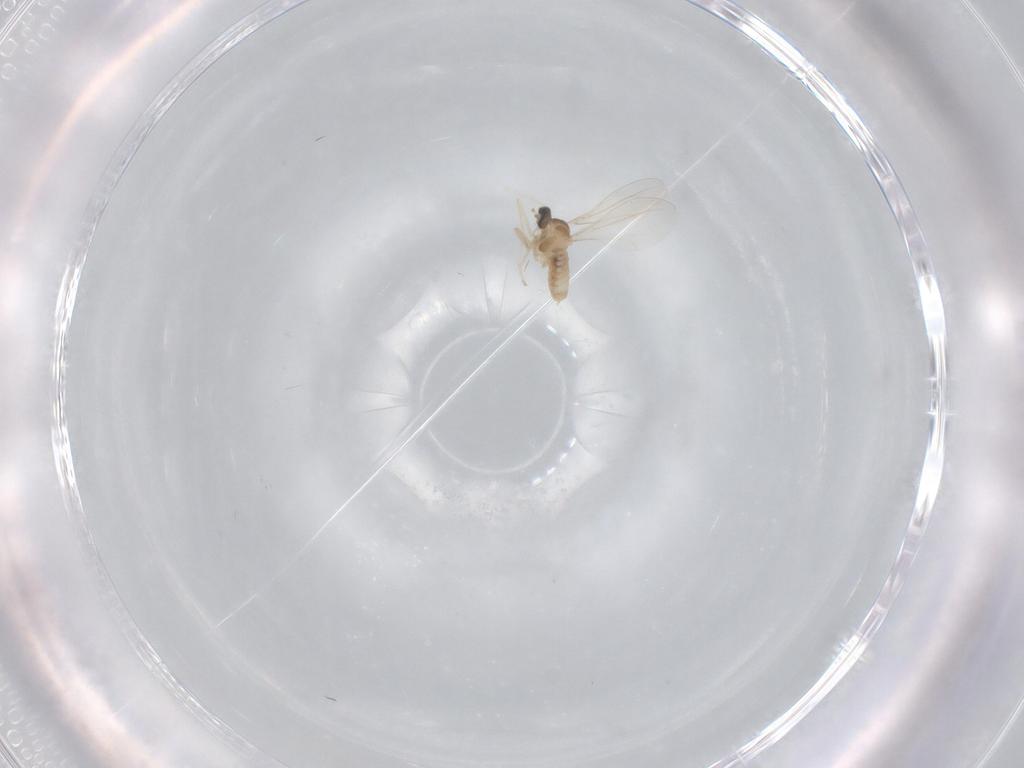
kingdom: Animalia
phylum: Arthropoda
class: Insecta
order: Diptera
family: Cecidomyiidae
